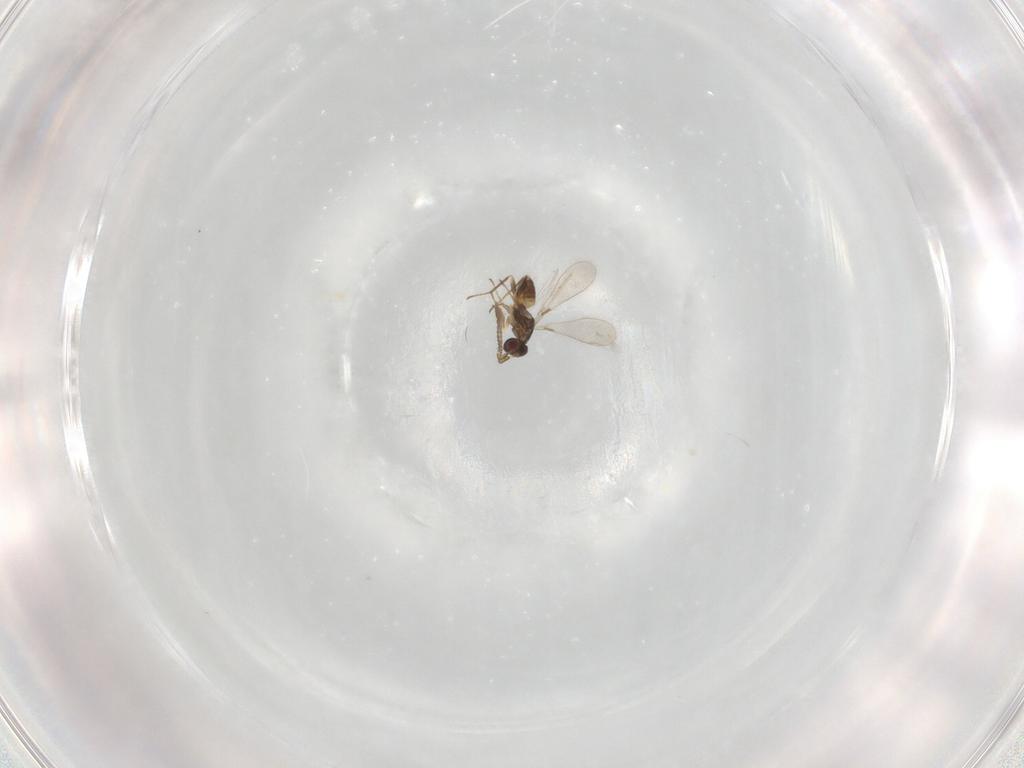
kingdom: Animalia
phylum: Arthropoda
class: Insecta
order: Hymenoptera
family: Mymaridae
